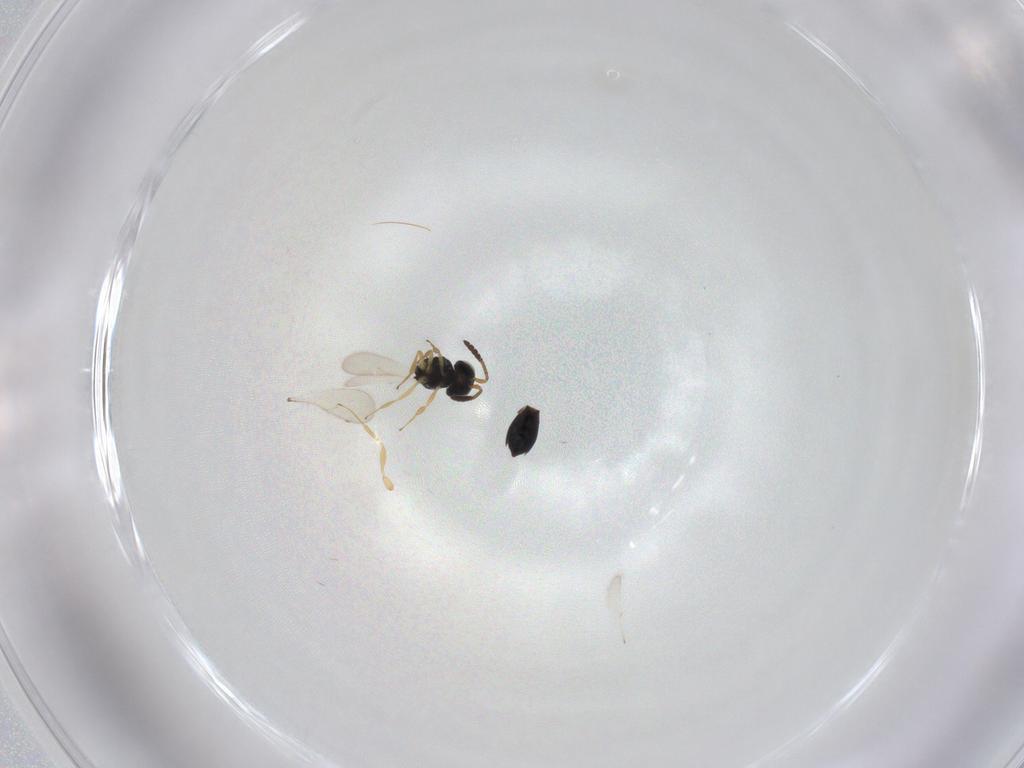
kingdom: Animalia
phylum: Arthropoda
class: Insecta
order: Hymenoptera
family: Scelionidae
